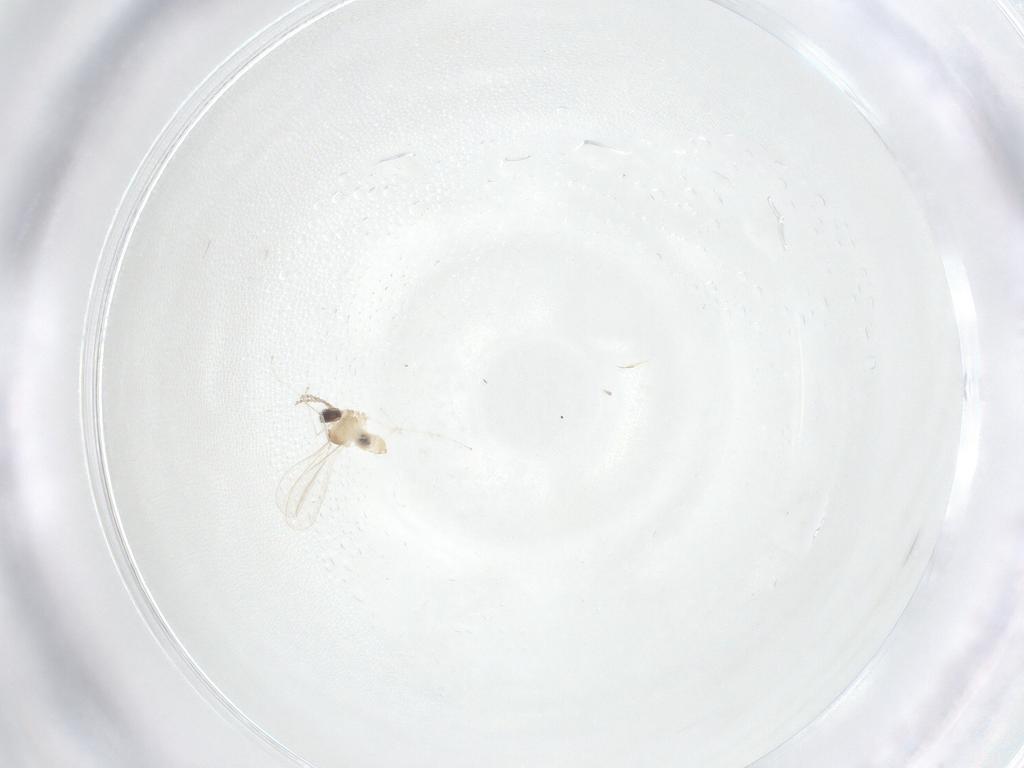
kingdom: Animalia
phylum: Arthropoda
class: Insecta
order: Diptera
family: Cecidomyiidae
